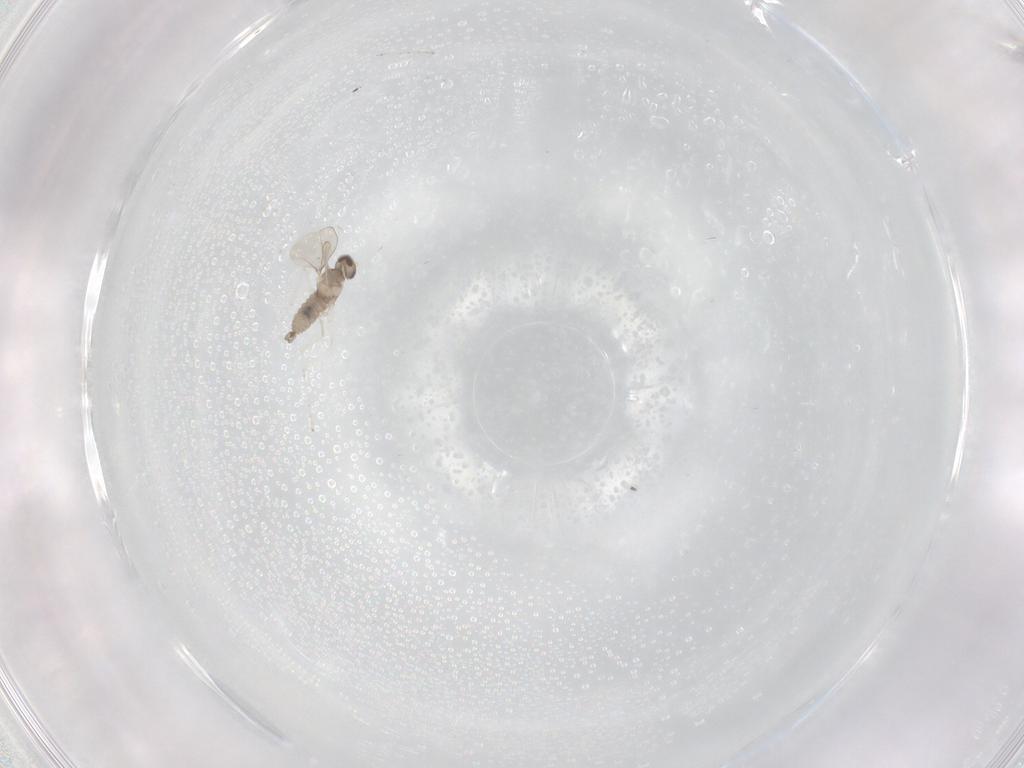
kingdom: Animalia
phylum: Arthropoda
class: Insecta
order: Diptera
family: Cecidomyiidae
